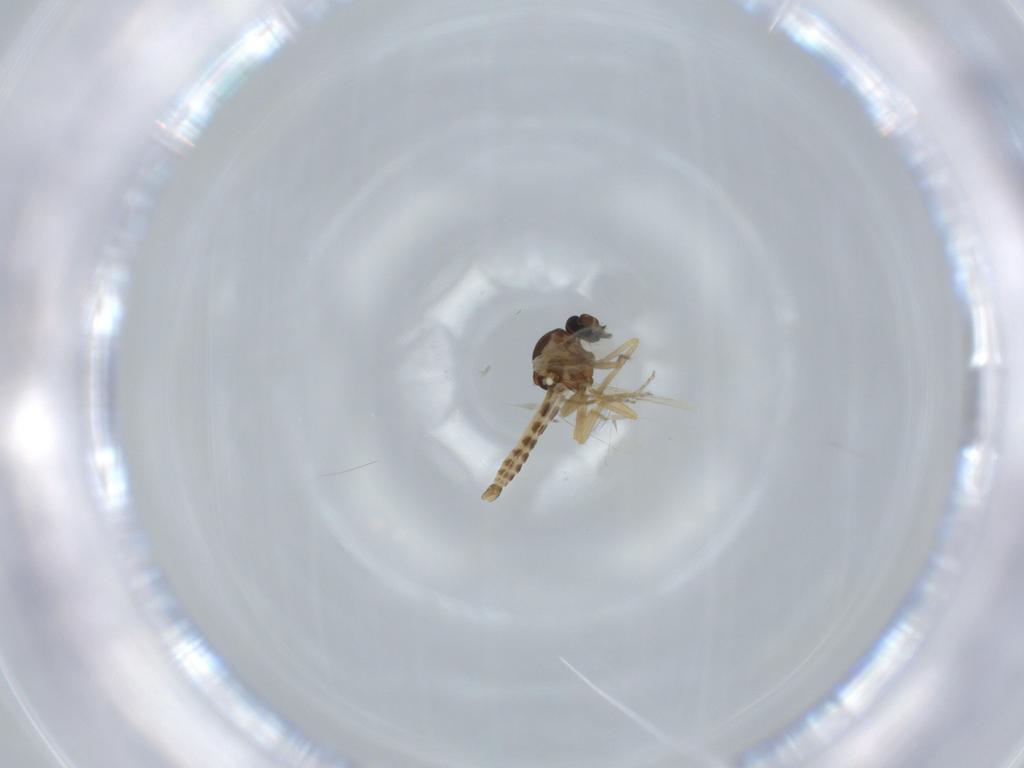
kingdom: Animalia
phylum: Arthropoda
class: Insecta
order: Diptera
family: Ceratopogonidae
